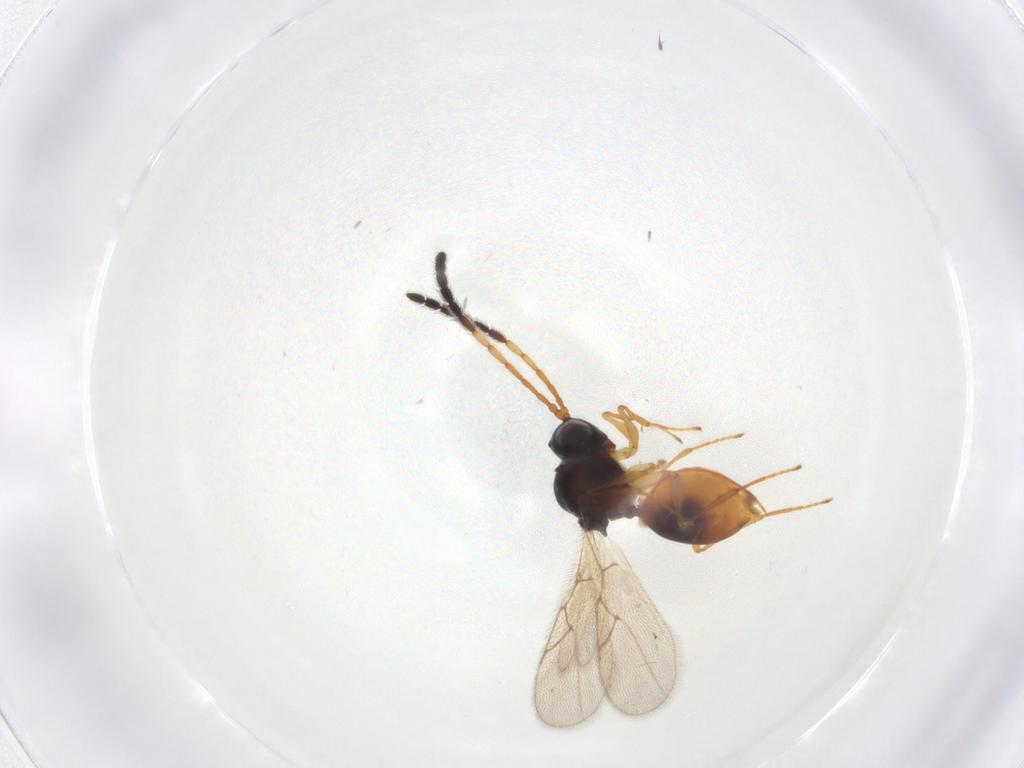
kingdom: Animalia
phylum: Arthropoda
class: Insecta
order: Hymenoptera
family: Figitidae
